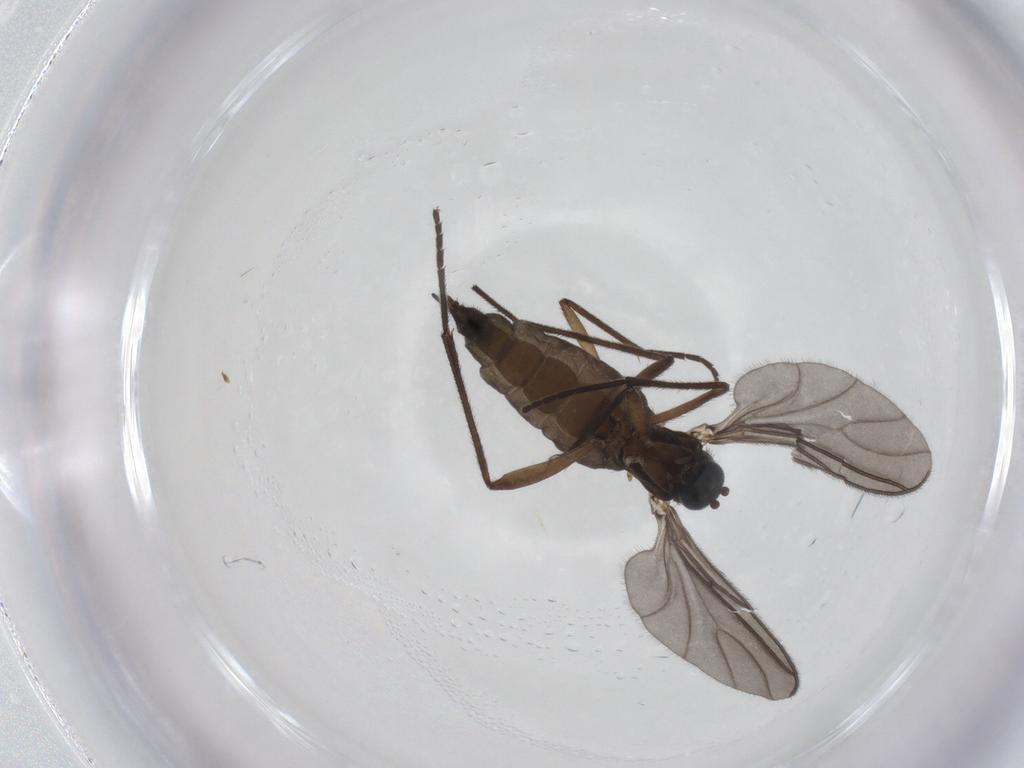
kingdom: Animalia
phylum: Arthropoda
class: Insecta
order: Diptera
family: Sciaridae
